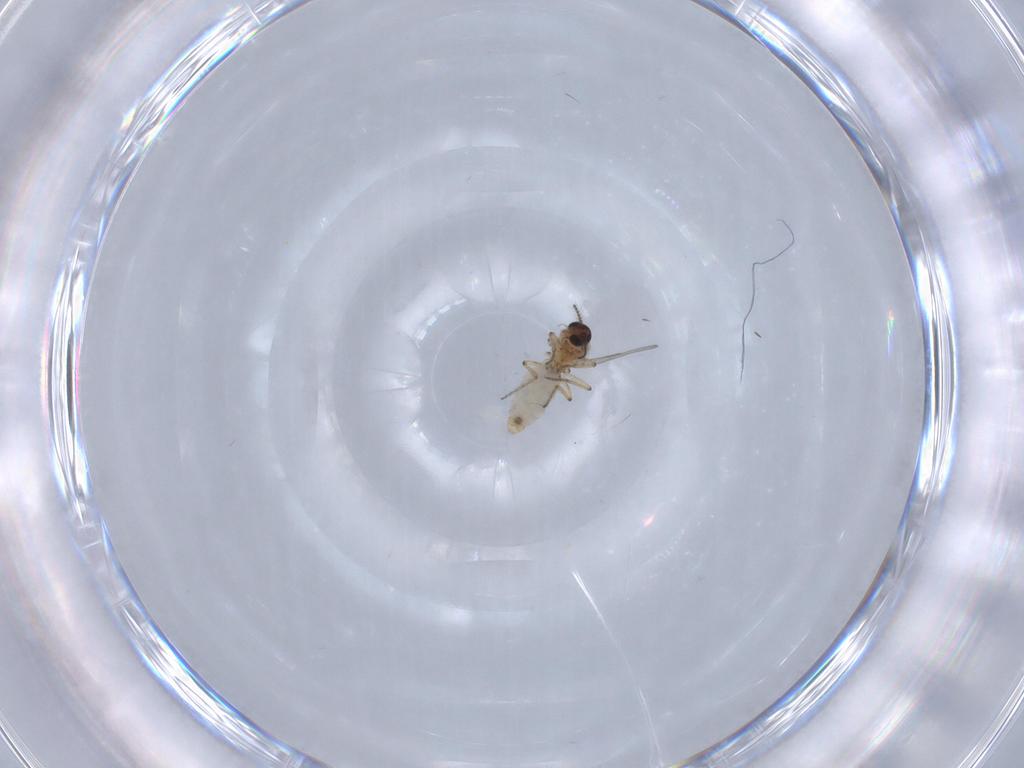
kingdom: Animalia
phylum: Arthropoda
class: Insecta
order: Diptera
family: Ceratopogonidae
